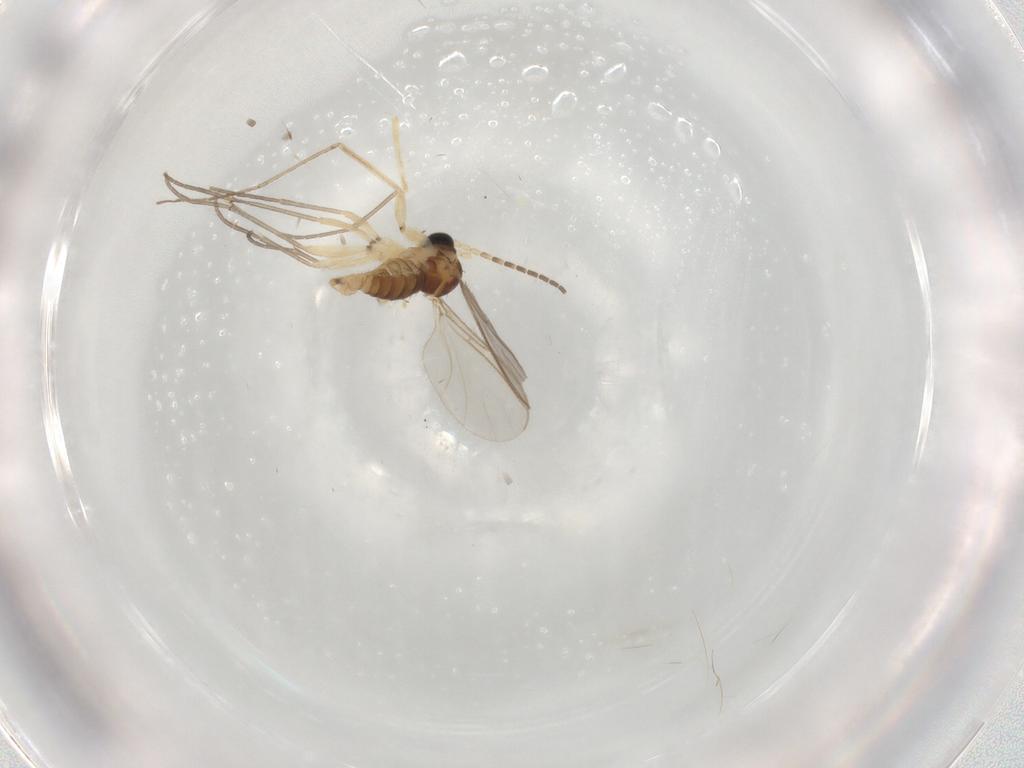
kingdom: Animalia
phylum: Arthropoda
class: Insecta
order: Diptera
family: Cecidomyiidae
